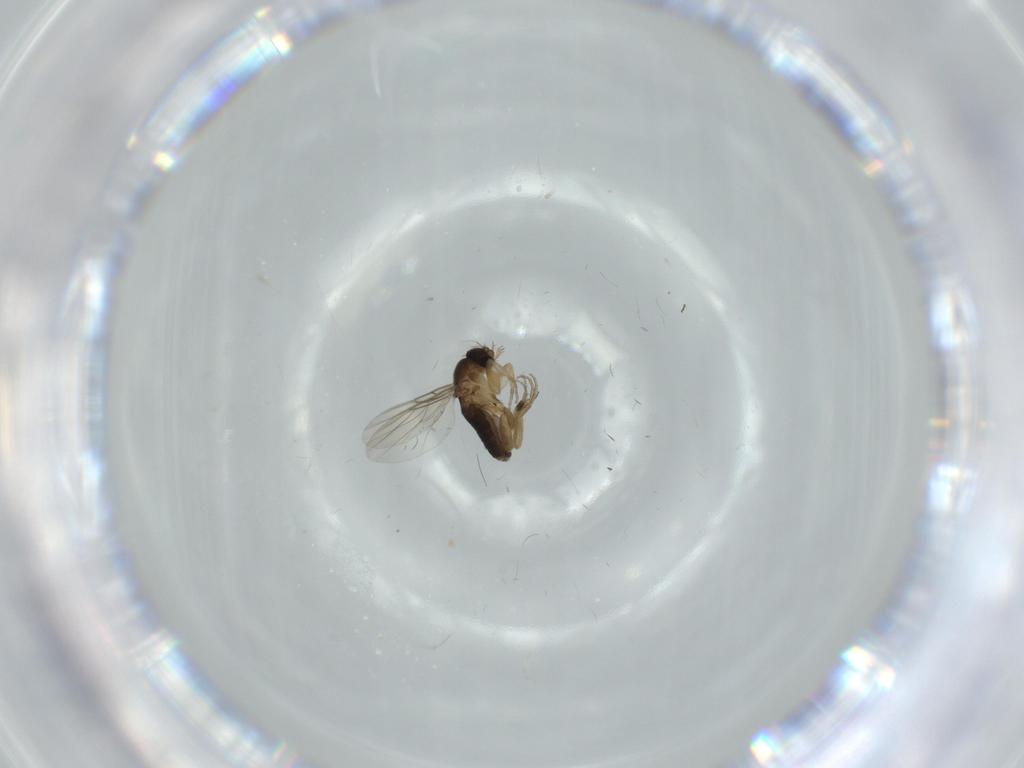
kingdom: Animalia
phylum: Arthropoda
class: Insecta
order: Diptera
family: Phoridae
